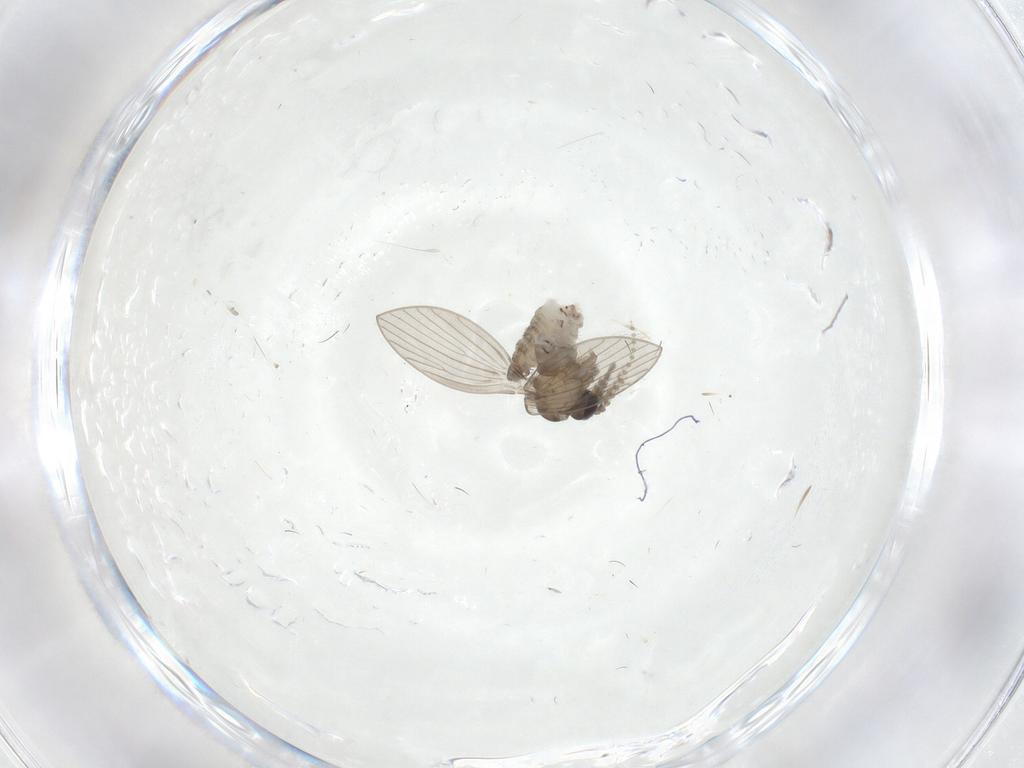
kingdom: Animalia
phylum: Arthropoda
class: Insecta
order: Diptera
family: Psychodidae
